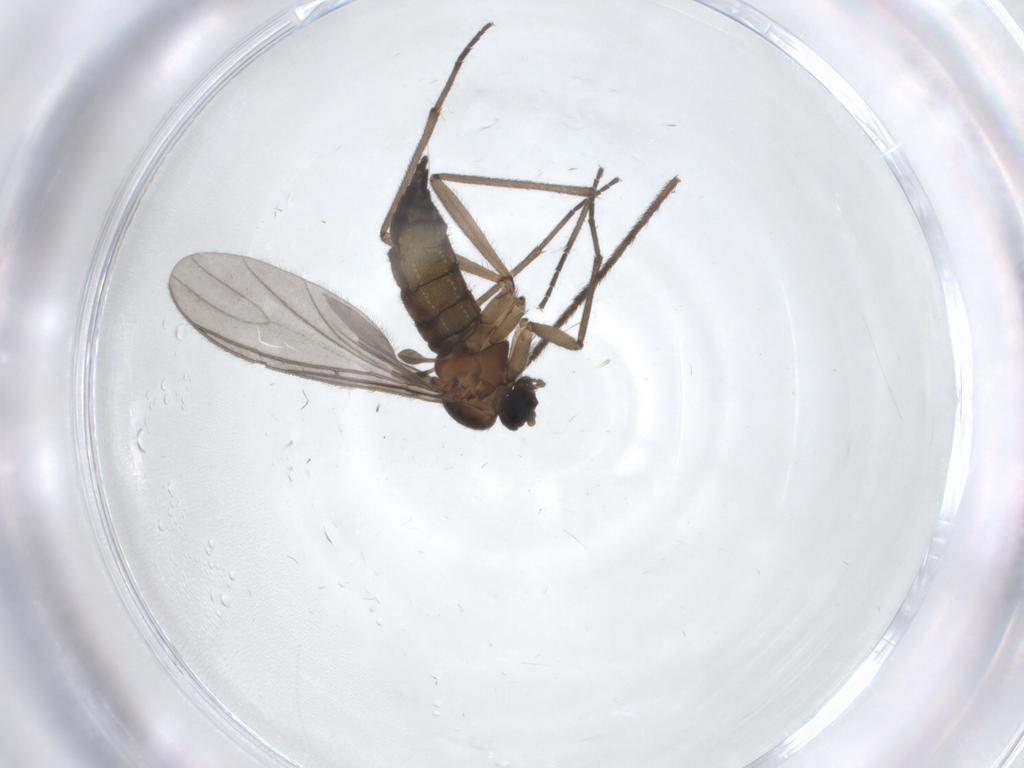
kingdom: Animalia
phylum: Arthropoda
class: Insecta
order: Diptera
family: Sciaridae
